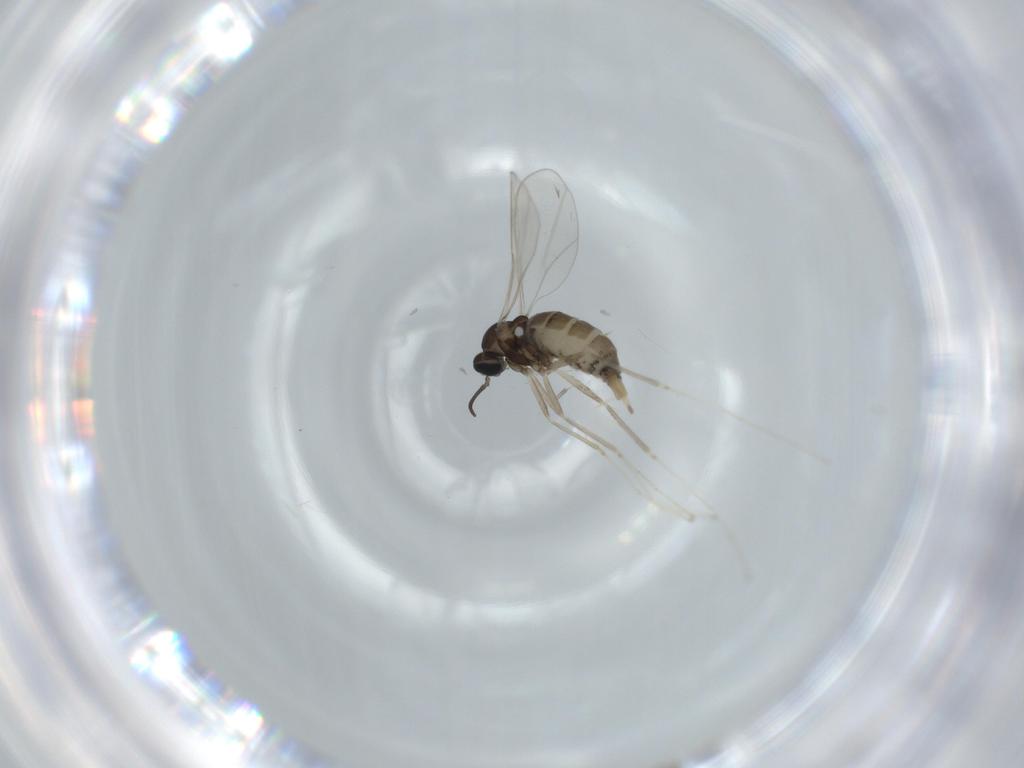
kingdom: Animalia
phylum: Arthropoda
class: Insecta
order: Diptera
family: Cecidomyiidae
